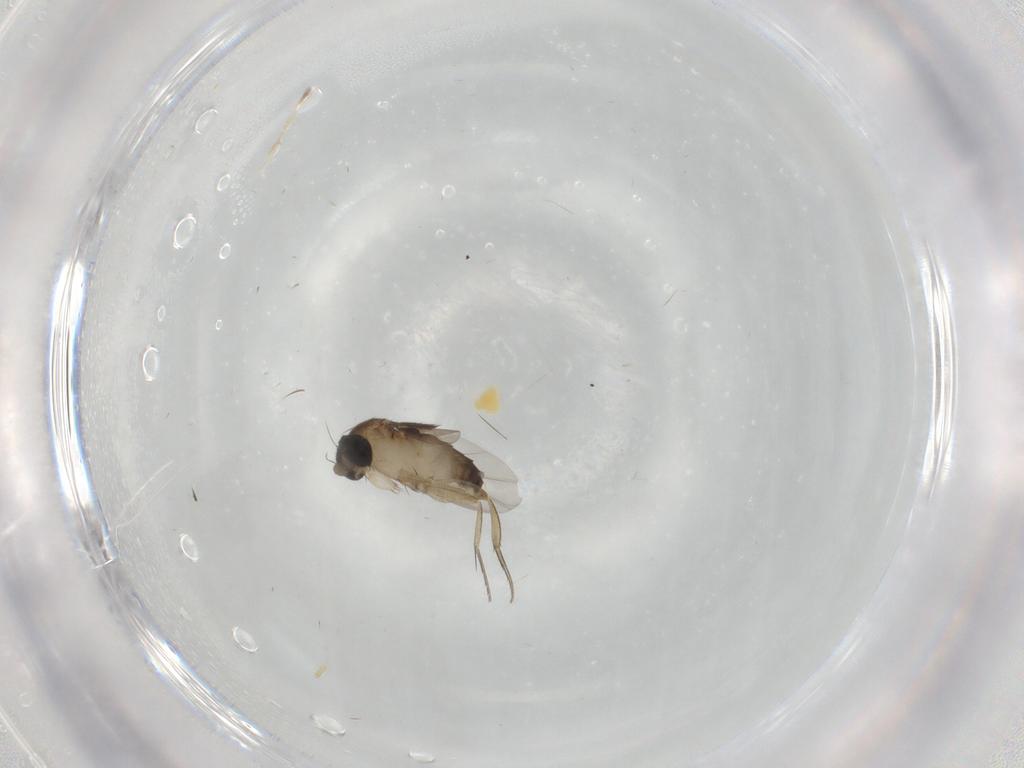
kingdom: Animalia
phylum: Arthropoda
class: Insecta
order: Diptera
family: Phoridae
